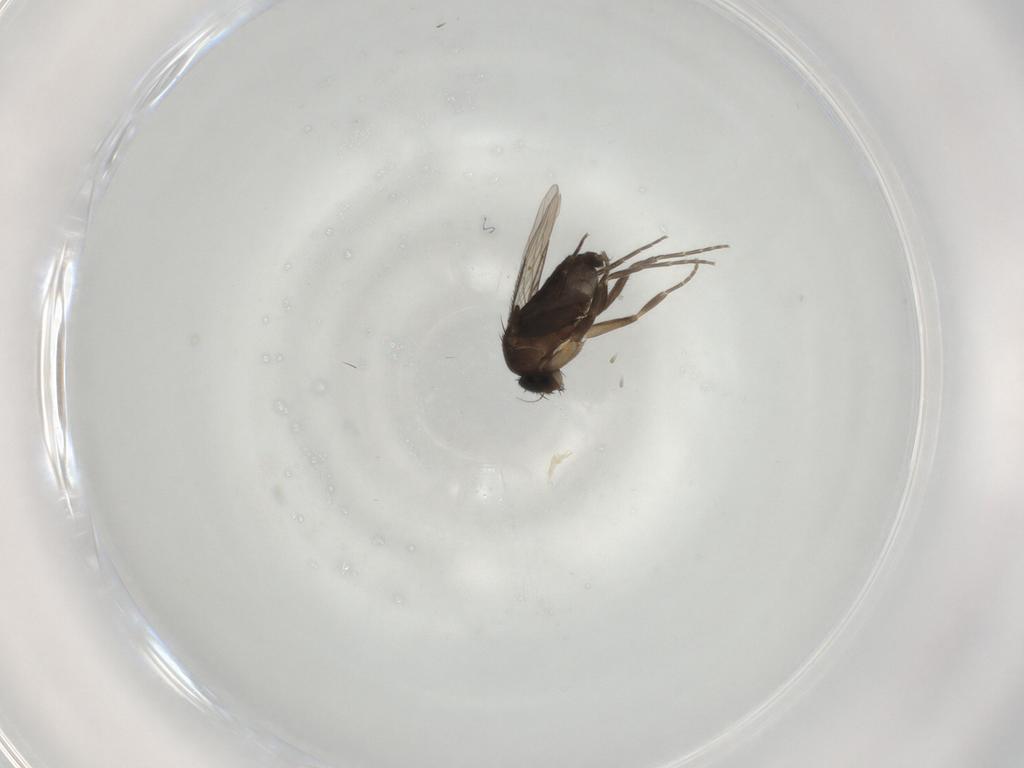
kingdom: Animalia
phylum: Arthropoda
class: Insecta
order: Diptera
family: Phoridae
